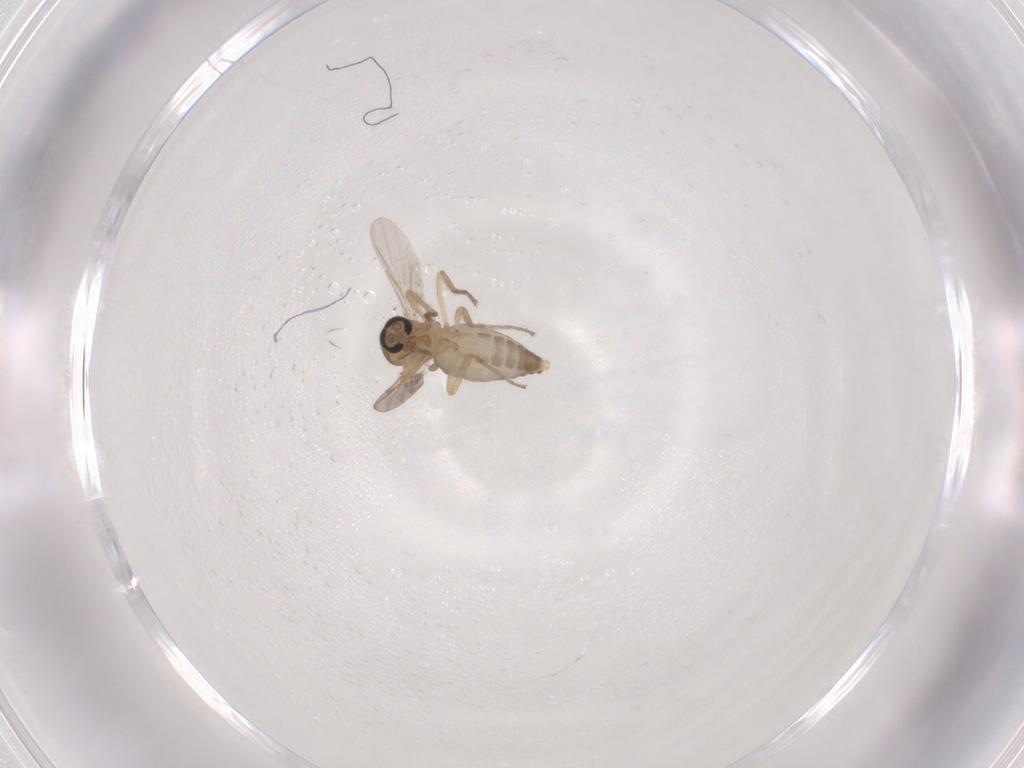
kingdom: Animalia
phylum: Arthropoda
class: Insecta
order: Diptera
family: Ceratopogonidae
